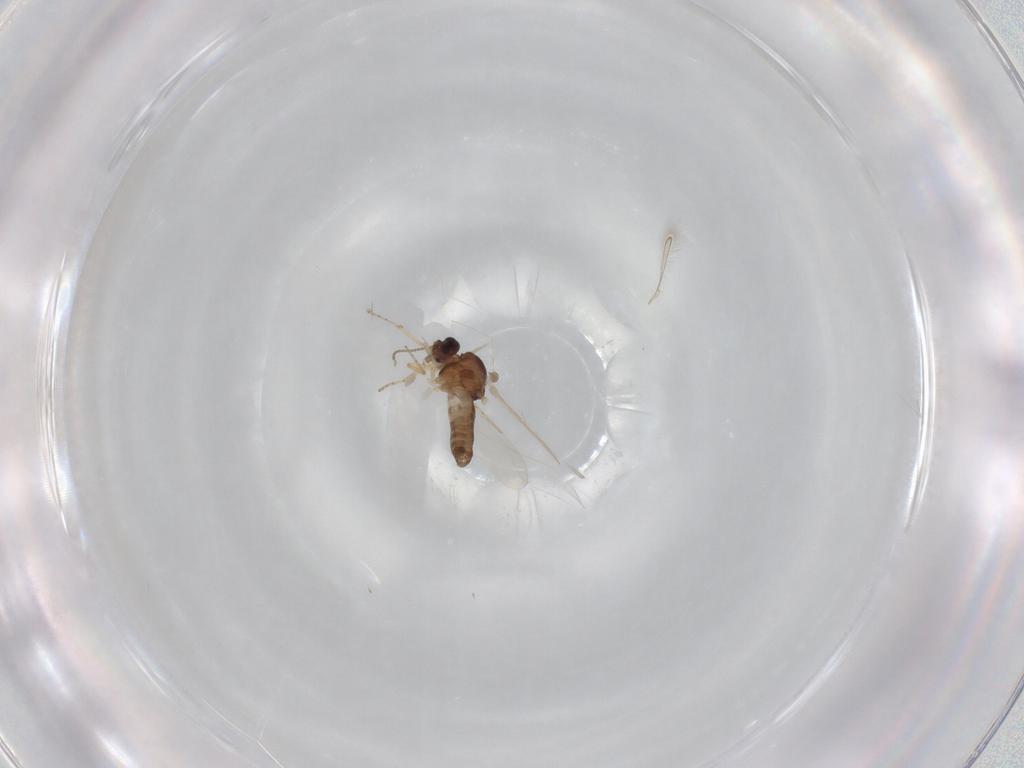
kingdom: Animalia
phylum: Arthropoda
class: Insecta
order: Diptera
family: Ceratopogonidae
